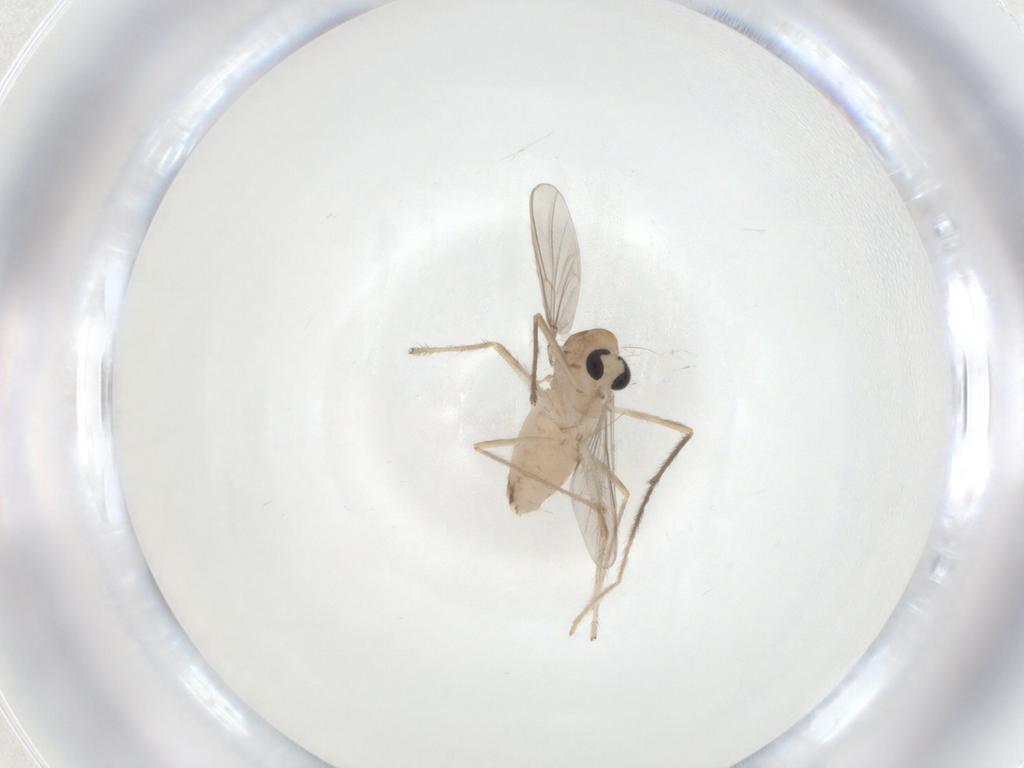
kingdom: Animalia
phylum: Arthropoda
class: Insecta
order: Diptera
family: Chironomidae
